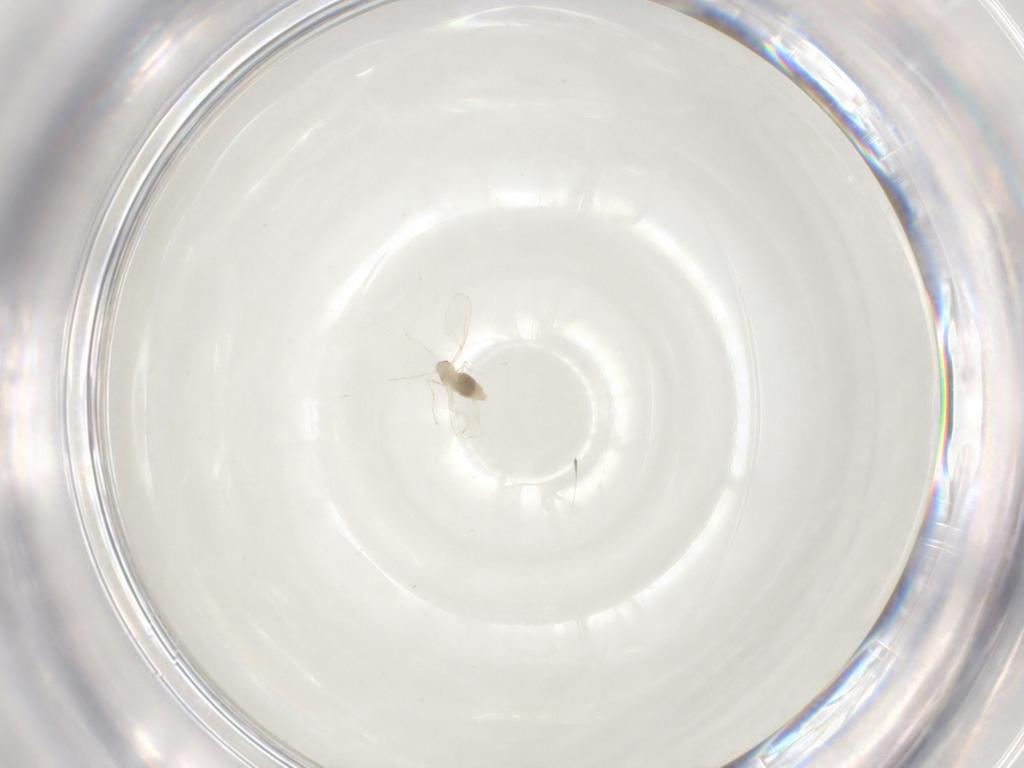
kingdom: Animalia
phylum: Arthropoda
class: Insecta
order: Diptera
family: Cecidomyiidae
